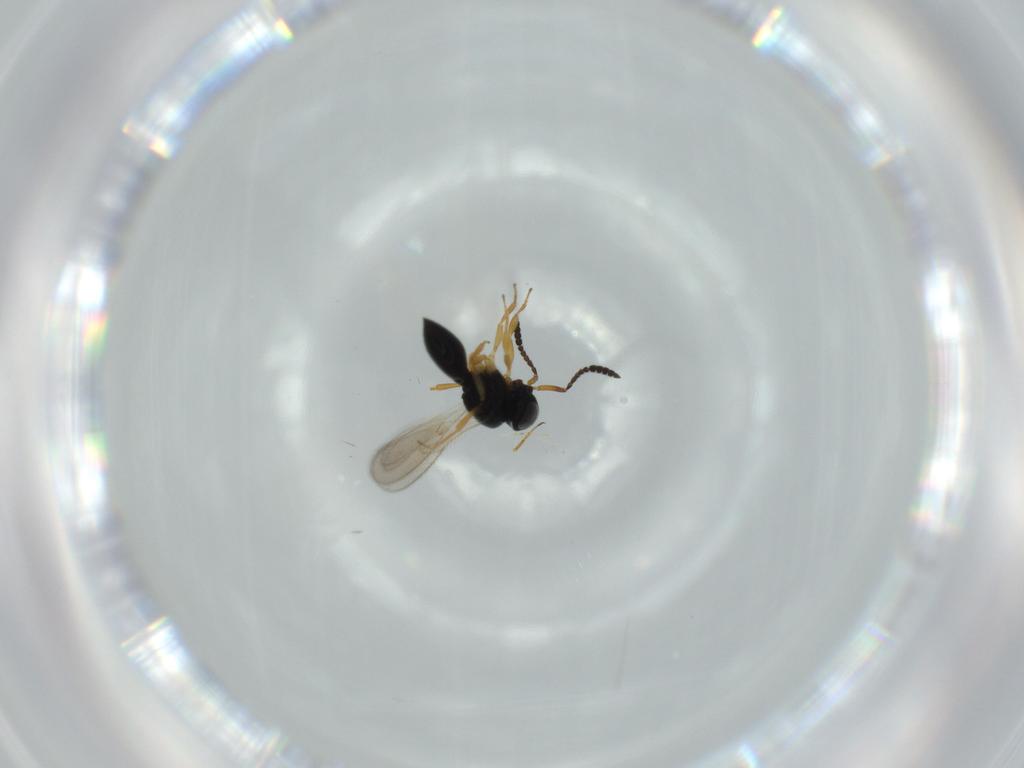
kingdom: Animalia
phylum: Arthropoda
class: Insecta
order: Hymenoptera
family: Scelionidae
